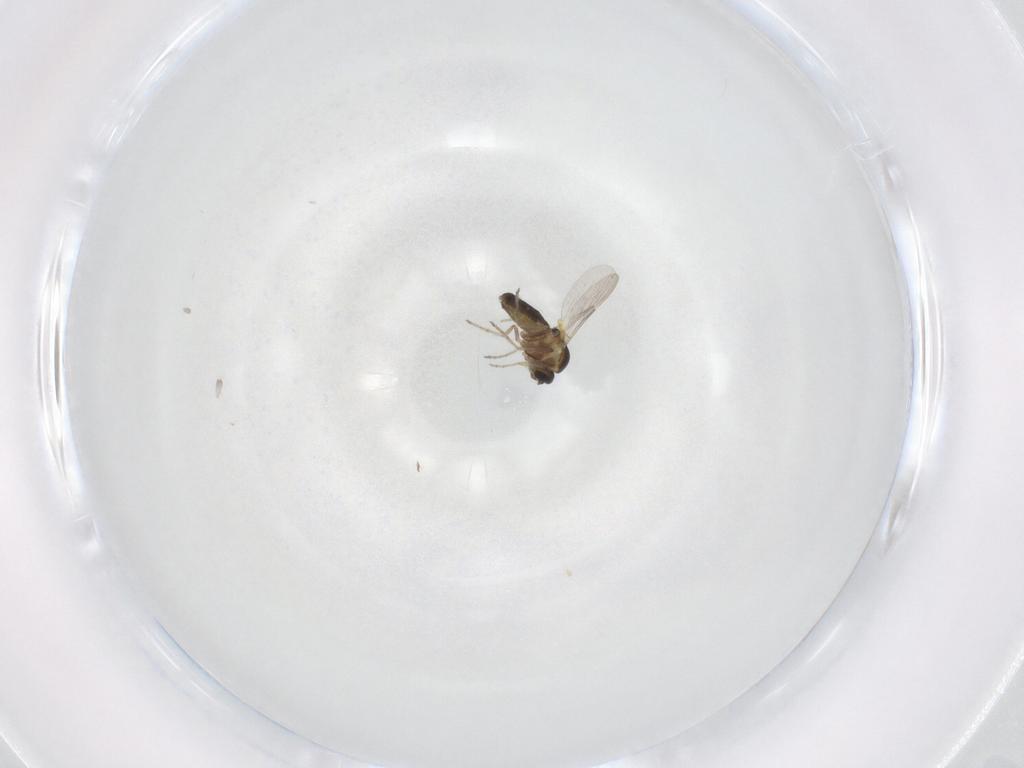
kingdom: Animalia
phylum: Arthropoda
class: Insecta
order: Diptera
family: Ceratopogonidae
